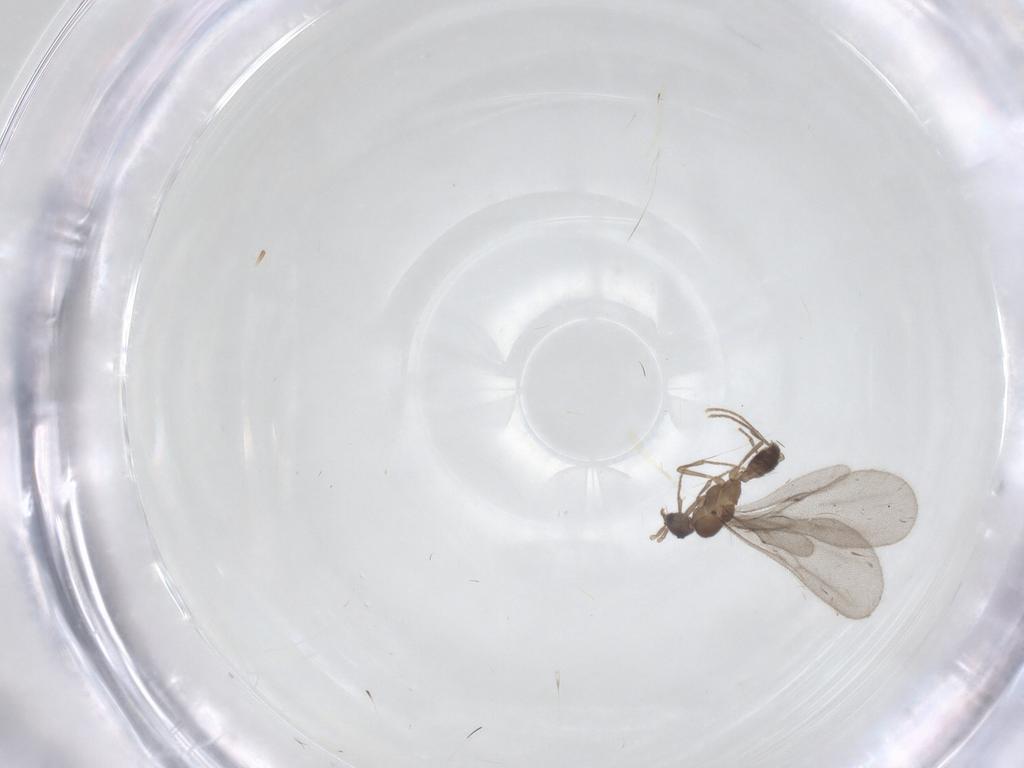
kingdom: Animalia
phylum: Arthropoda
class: Insecta
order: Hymenoptera
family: Formicidae
